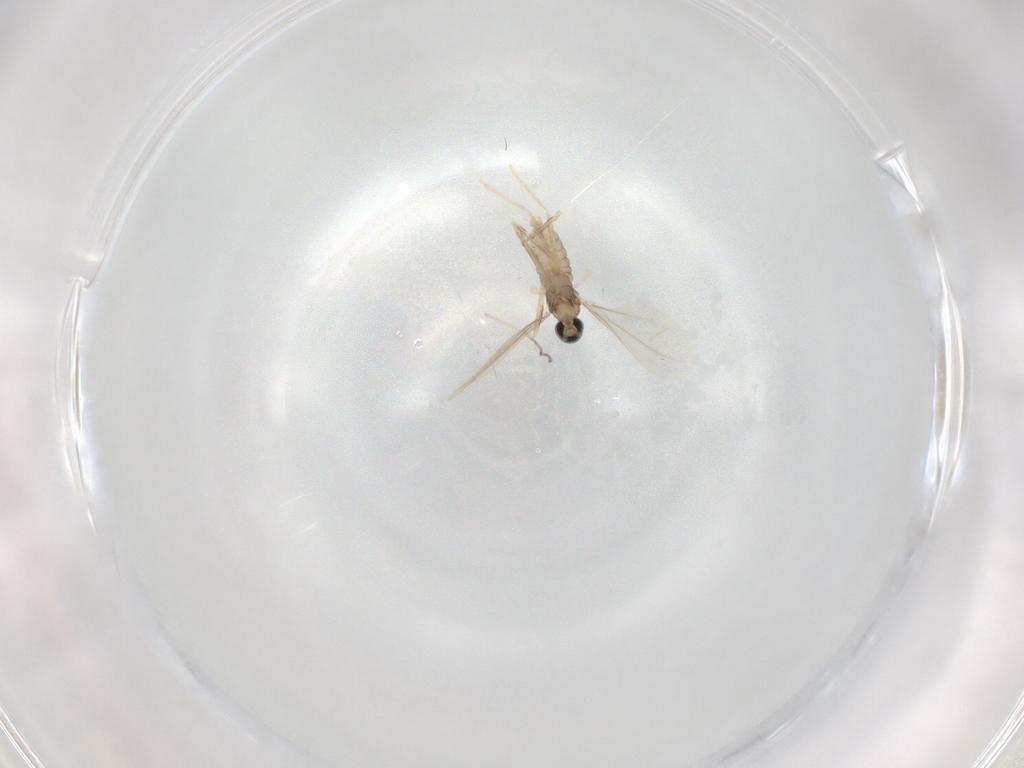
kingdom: Animalia
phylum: Arthropoda
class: Insecta
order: Diptera
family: Cecidomyiidae
